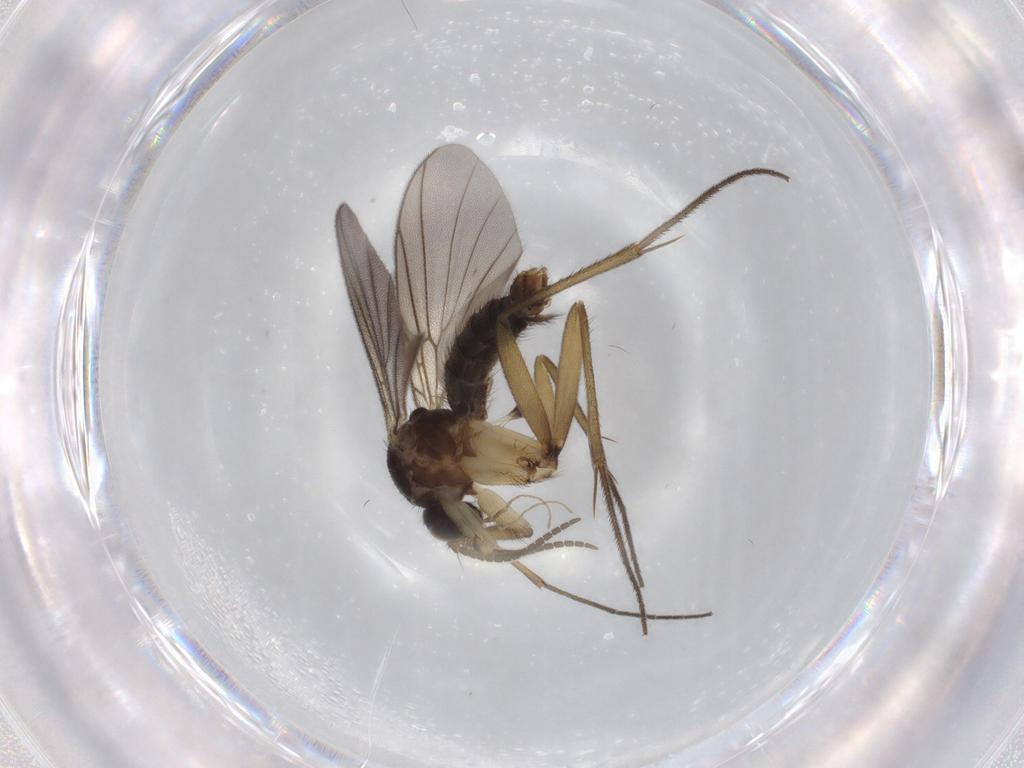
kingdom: Animalia
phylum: Arthropoda
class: Insecta
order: Diptera
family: Mycetophilidae
